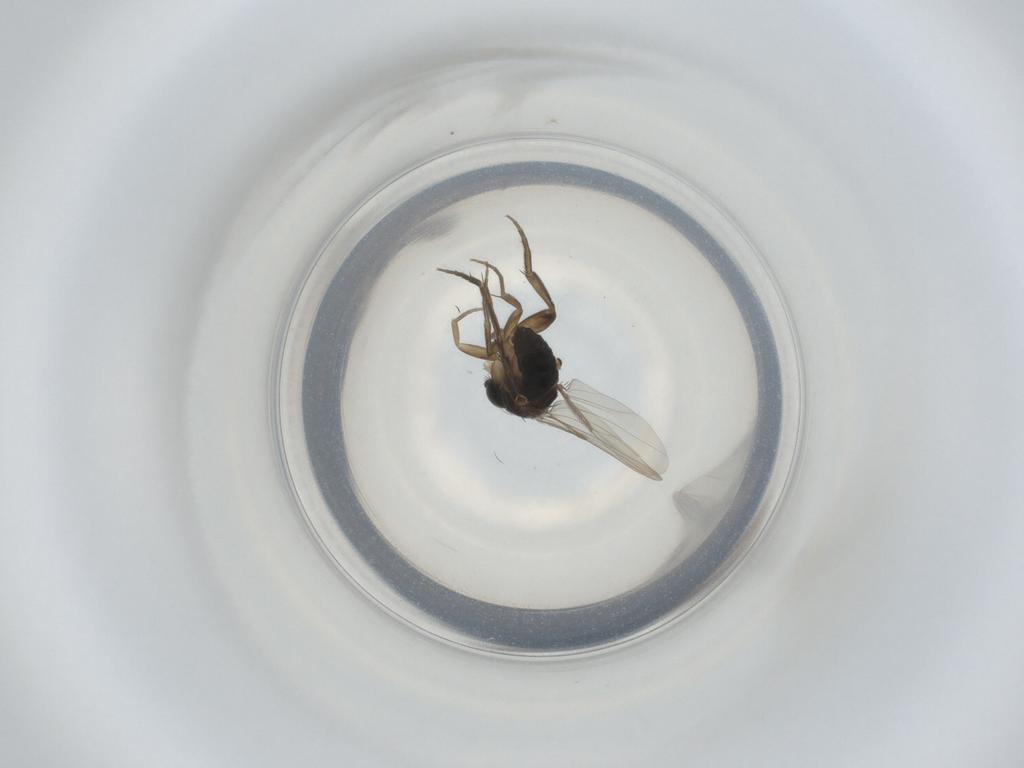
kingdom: Animalia
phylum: Arthropoda
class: Insecta
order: Diptera
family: Phoridae
